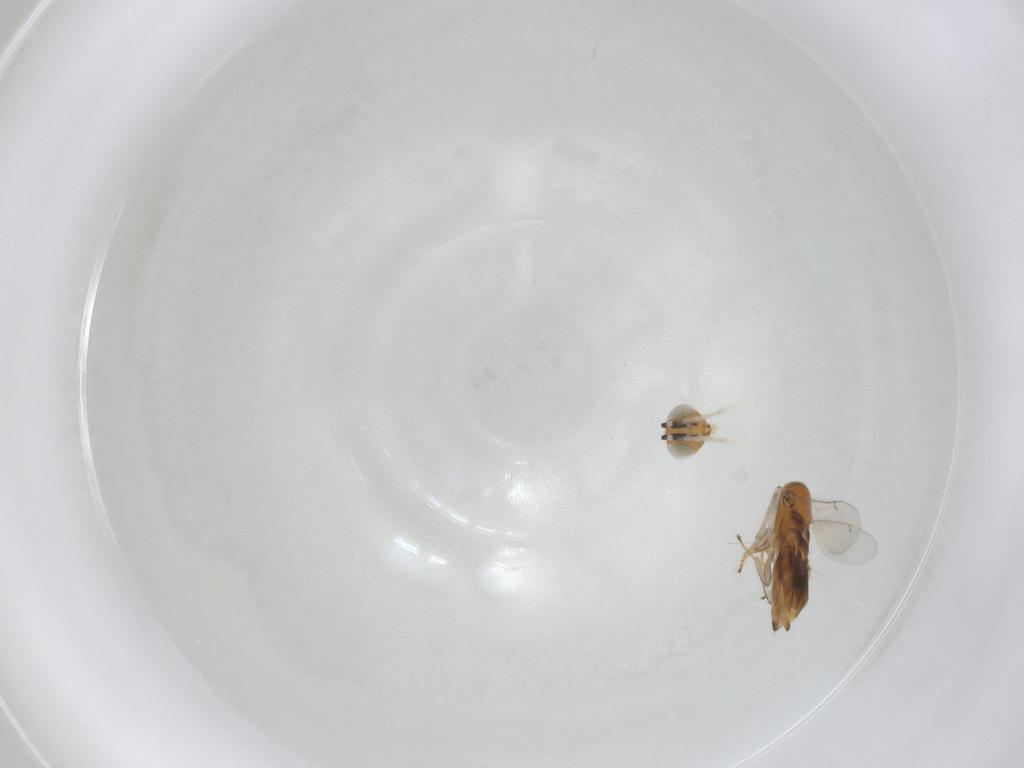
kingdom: Animalia
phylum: Arthropoda
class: Insecta
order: Hymenoptera
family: Encyrtidae
